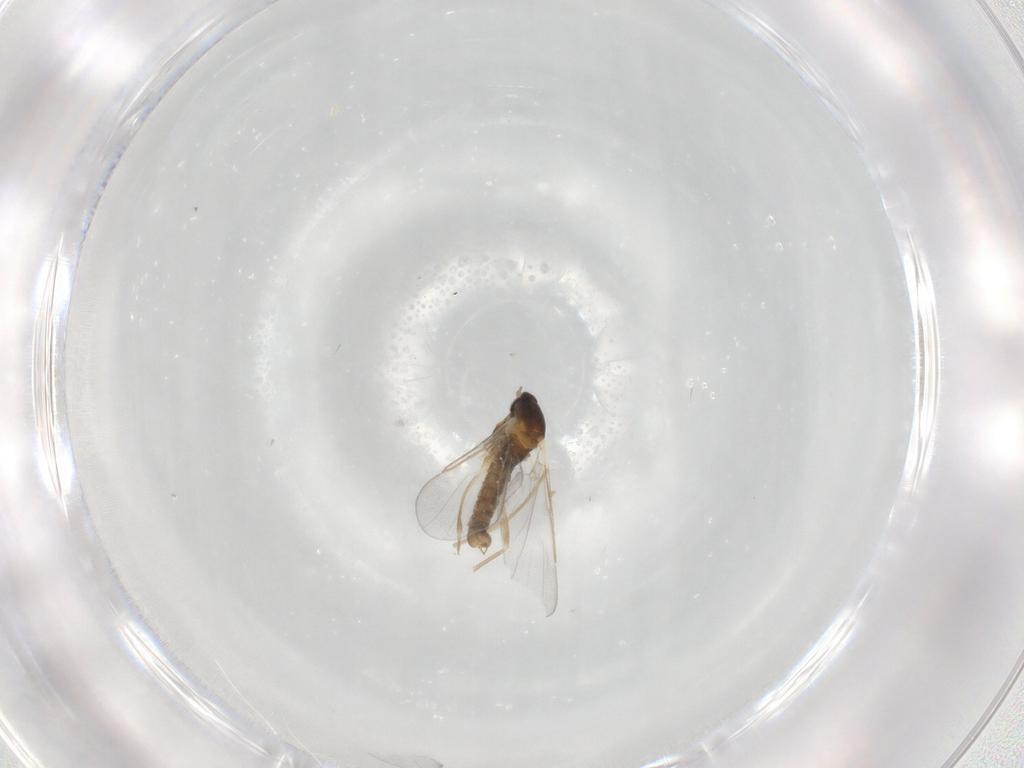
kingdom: Animalia
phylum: Arthropoda
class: Insecta
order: Diptera
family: Cecidomyiidae
